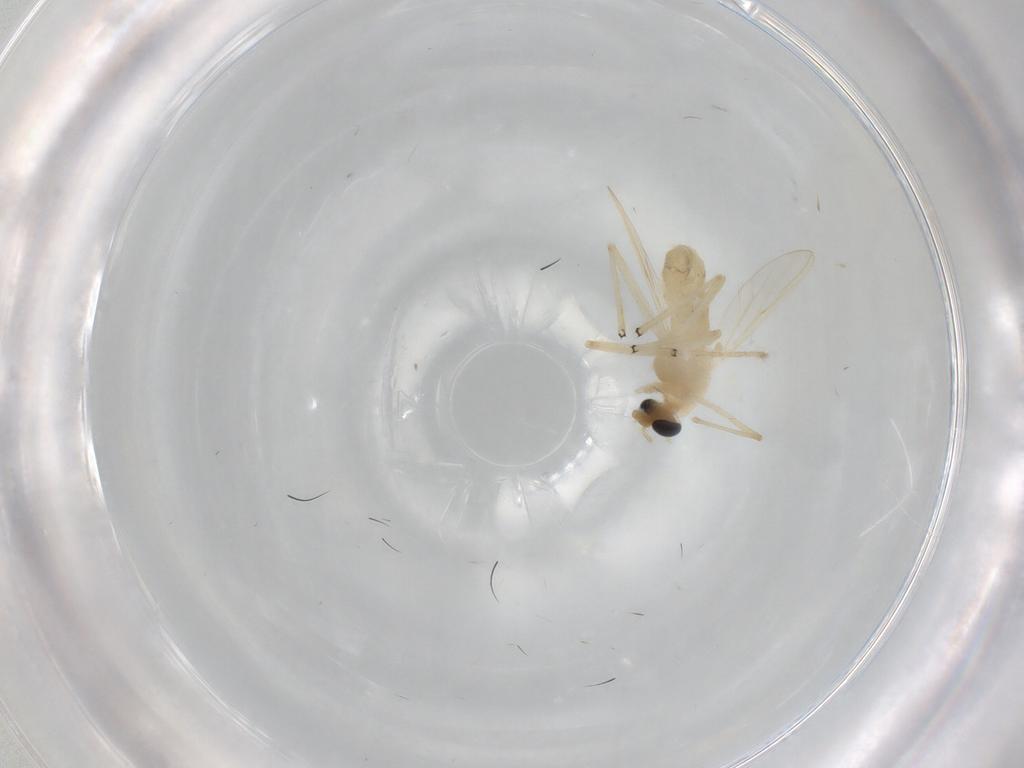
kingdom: Animalia
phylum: Arthropoda
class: Insecta
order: Diptera
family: Chironomidae
